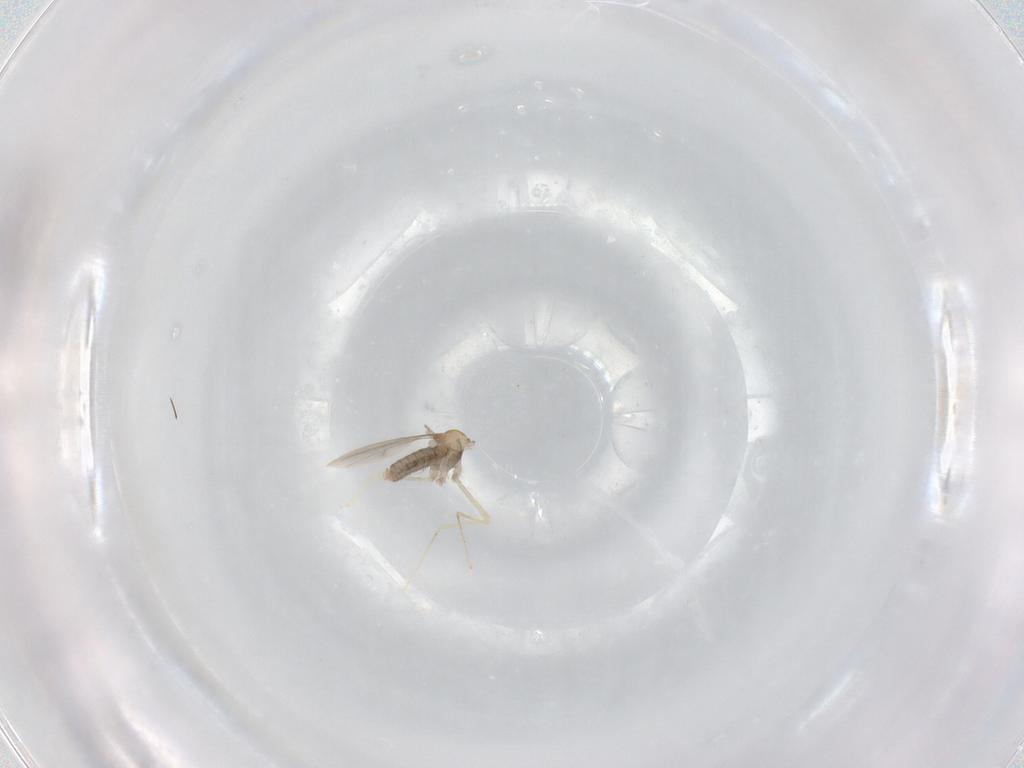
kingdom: Animalia
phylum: Arthropoda
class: Insecta
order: Diptera
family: Cecidomyiidae
